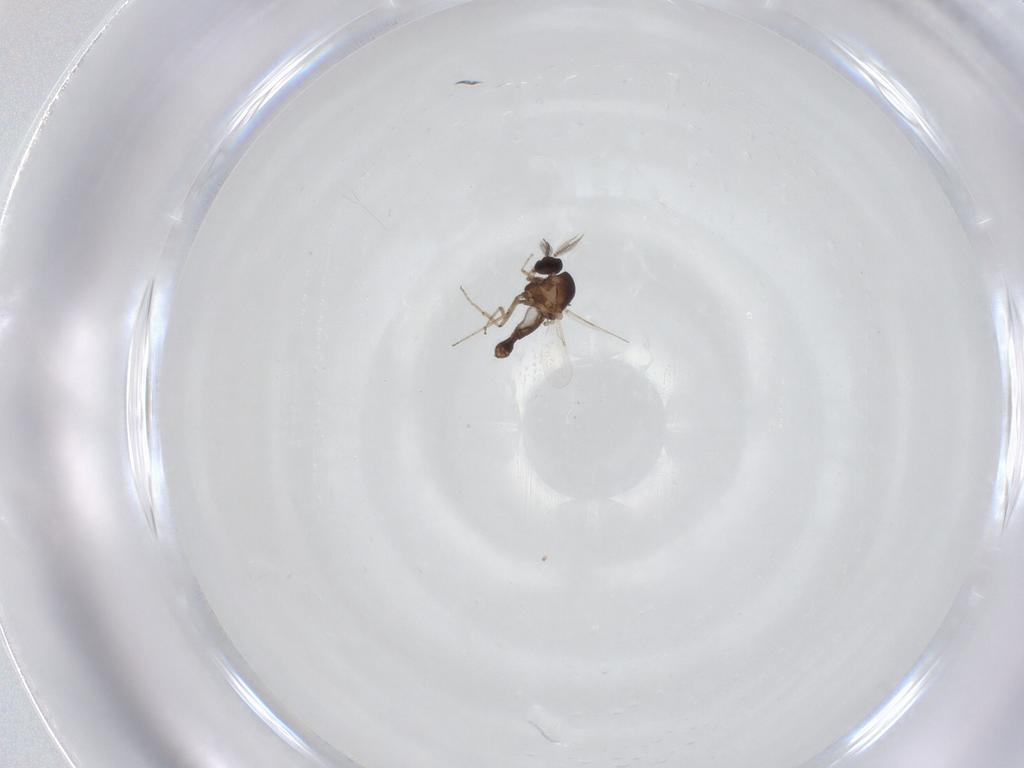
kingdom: Animalia
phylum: Arthropoda
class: Insecta
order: Diptera
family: Ceratopogonidae
